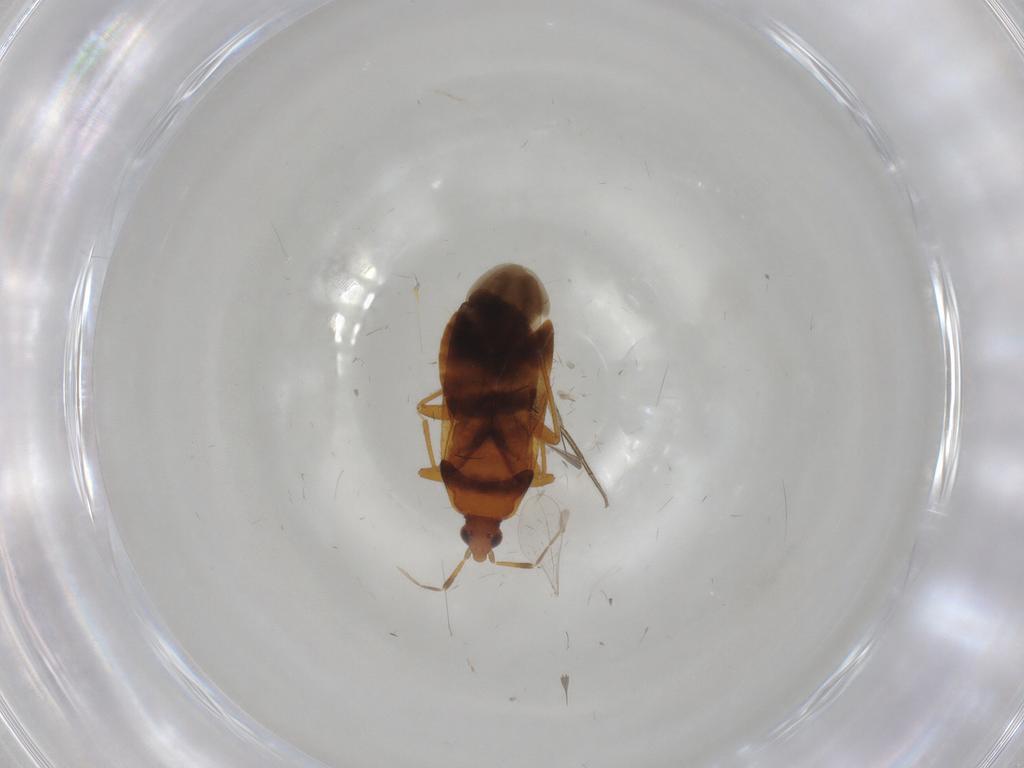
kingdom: Animalia
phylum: Arthropoda
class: Insecta
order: Hemiptera
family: Anthocoridae
